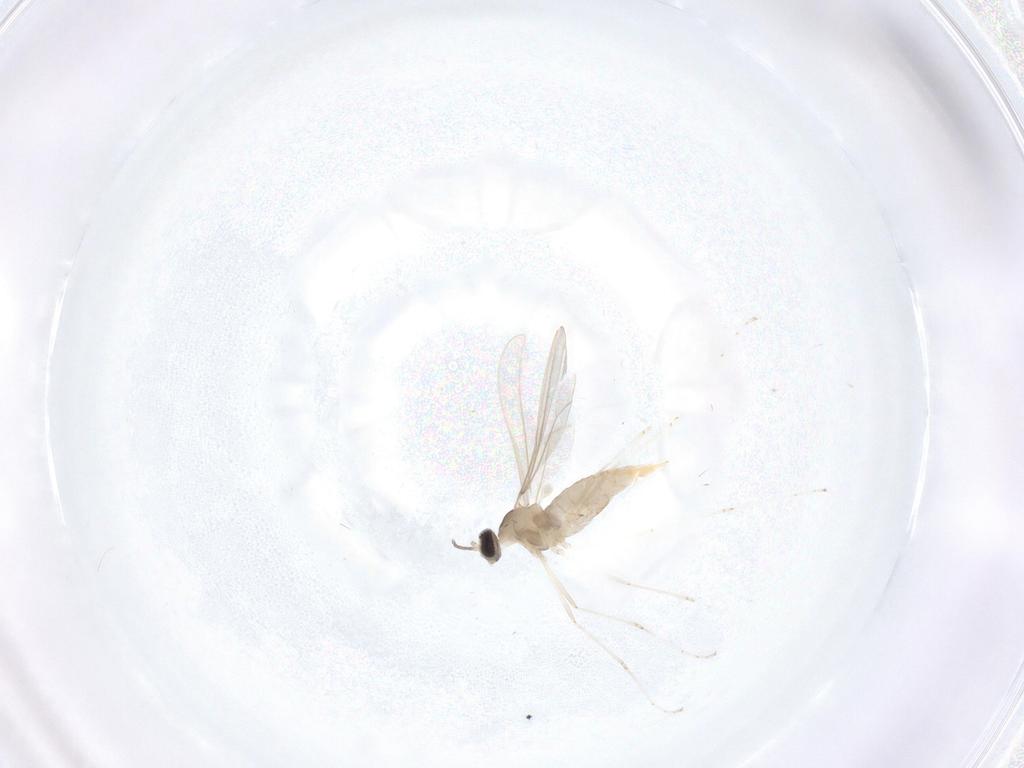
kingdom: Animalia
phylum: Arthropoda
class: Insecta
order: Diptera
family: Cecidomyiidae
